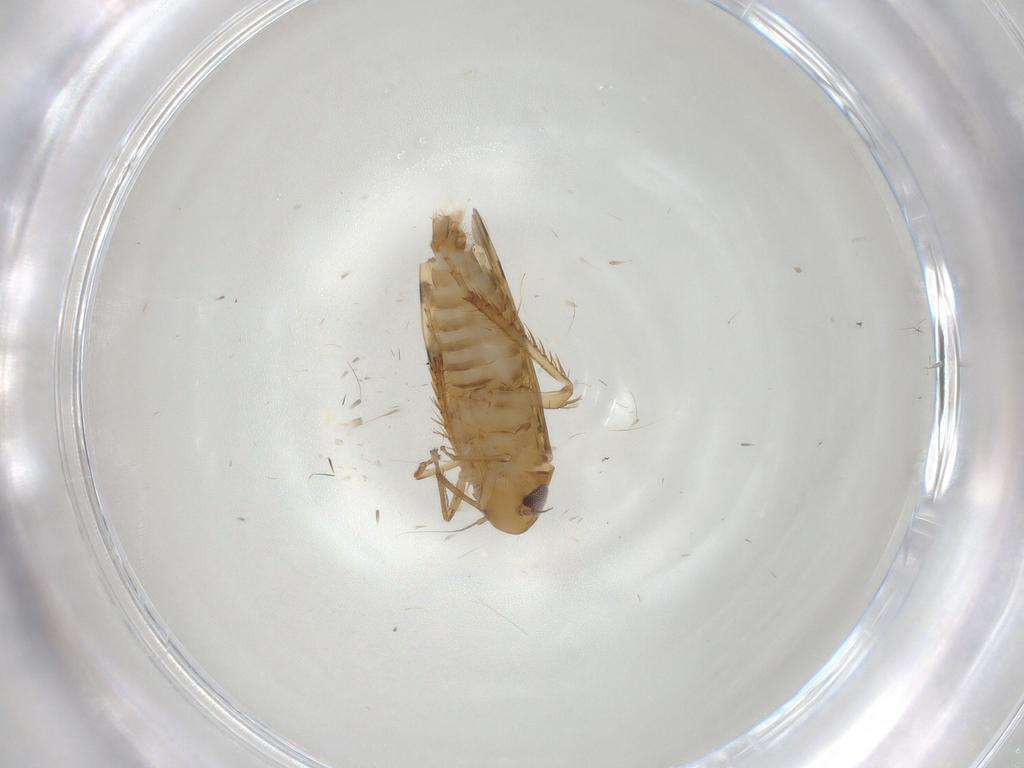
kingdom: Animalia
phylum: Arthropoda
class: Insecta
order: Hemiptera
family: Cicadellidae
